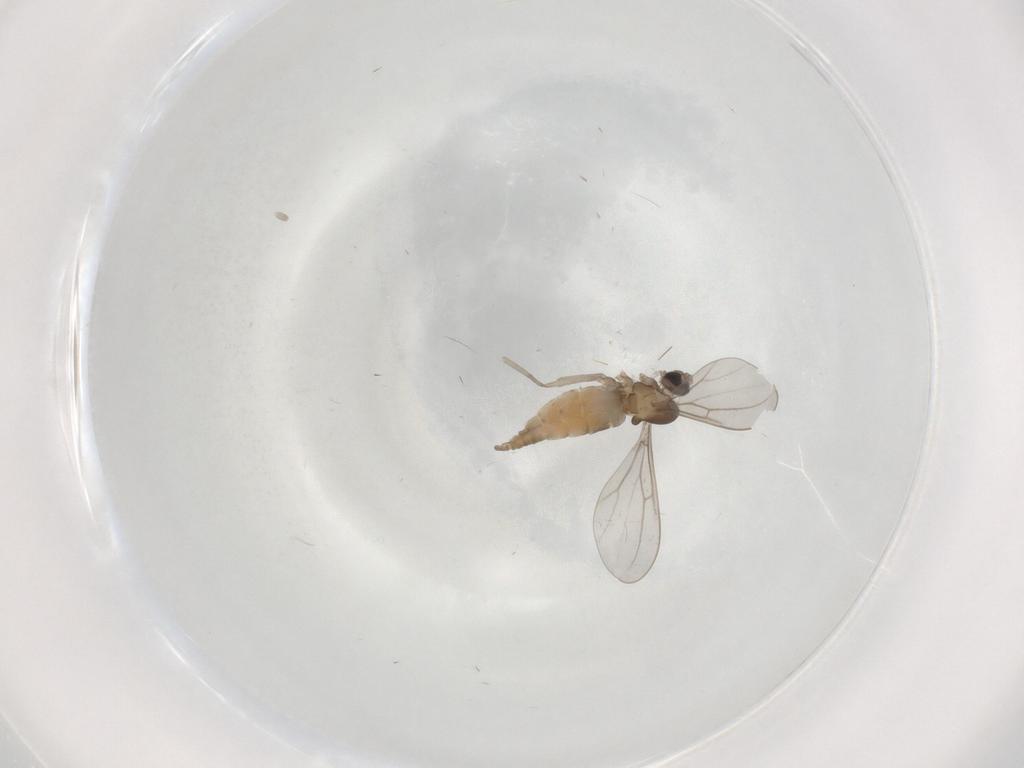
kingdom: Animalia
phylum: Arthropoda
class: Insecta
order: Diptera
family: Cecidomyiidae
